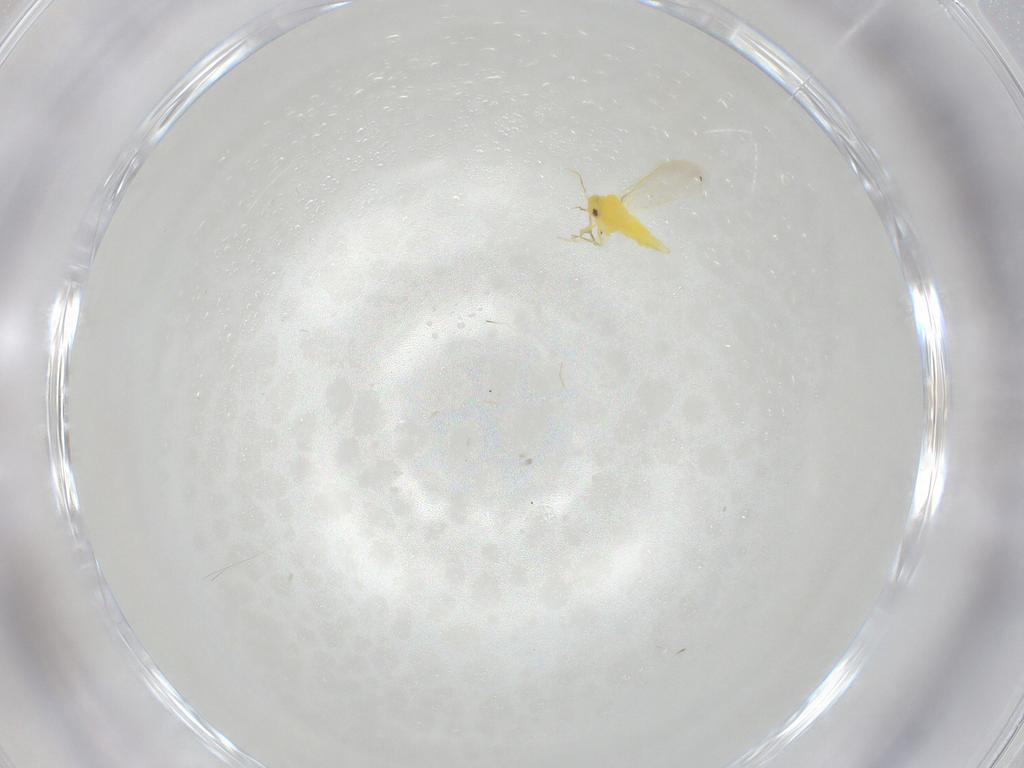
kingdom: Animalia
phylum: Arthropoda
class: Insecta
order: Hemiptera
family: Aleyrodidae
